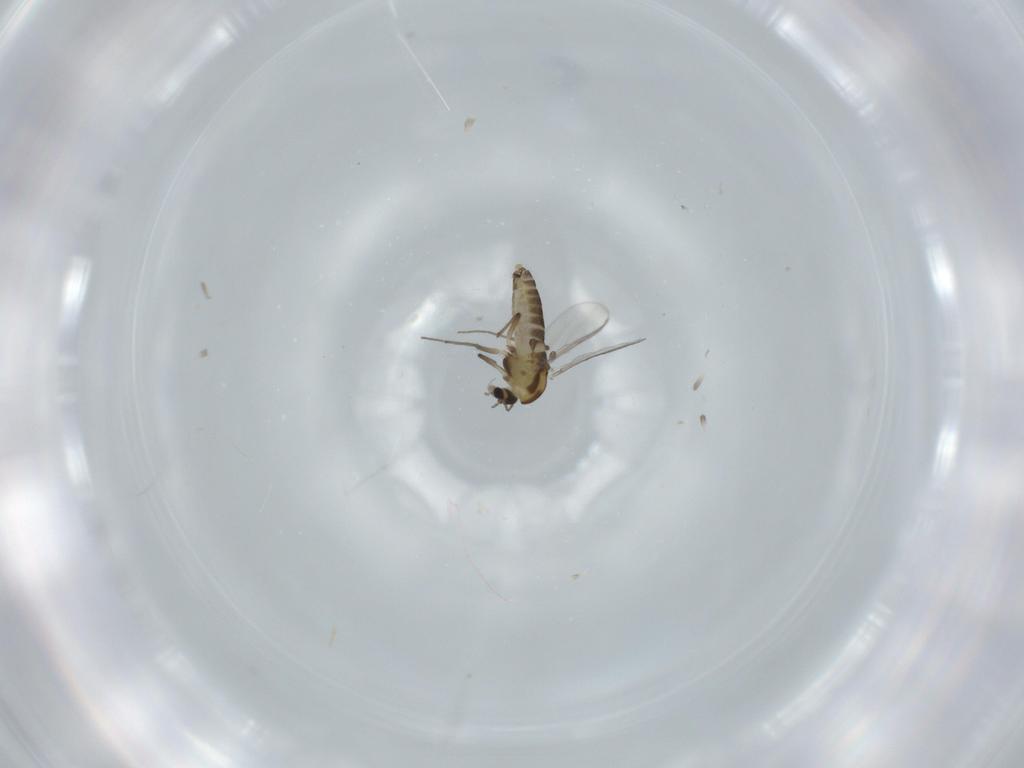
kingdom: Animalia
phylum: Arthropoda
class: Insecta
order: Diptera
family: Chironomidae
